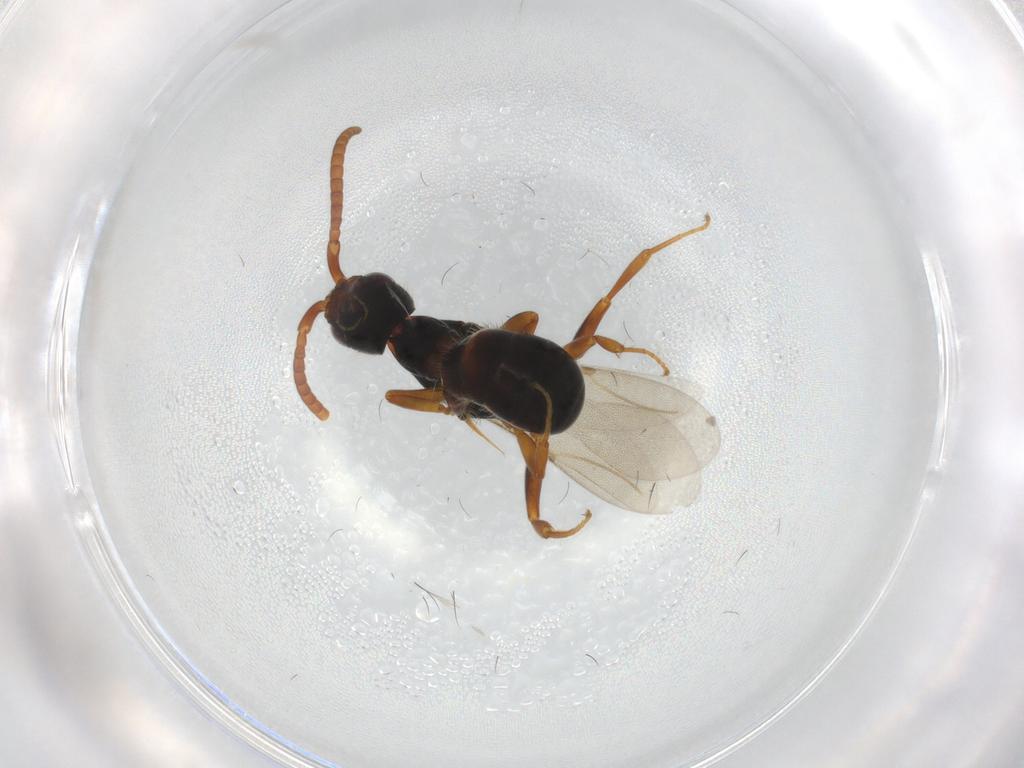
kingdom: Animalia
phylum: Arthropoda
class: Insecta
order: Hymenoptera
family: Bethylidae
